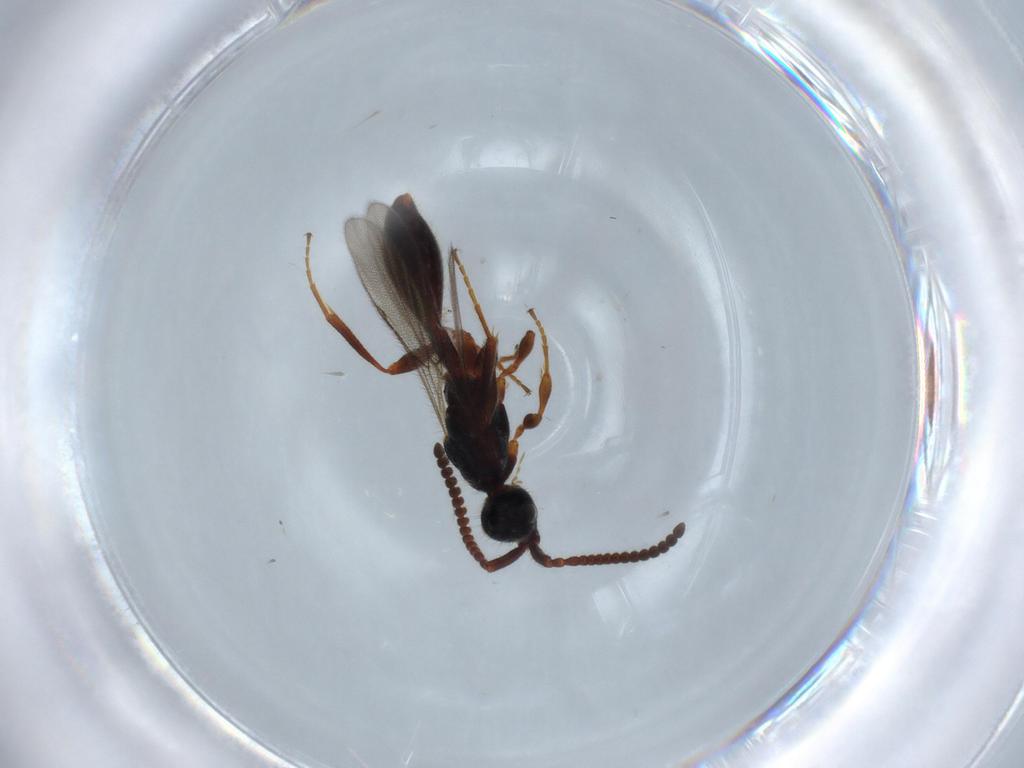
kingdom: Animalia
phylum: Arthropoda
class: Insecta
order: Hymenoptera
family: Diapriidae
